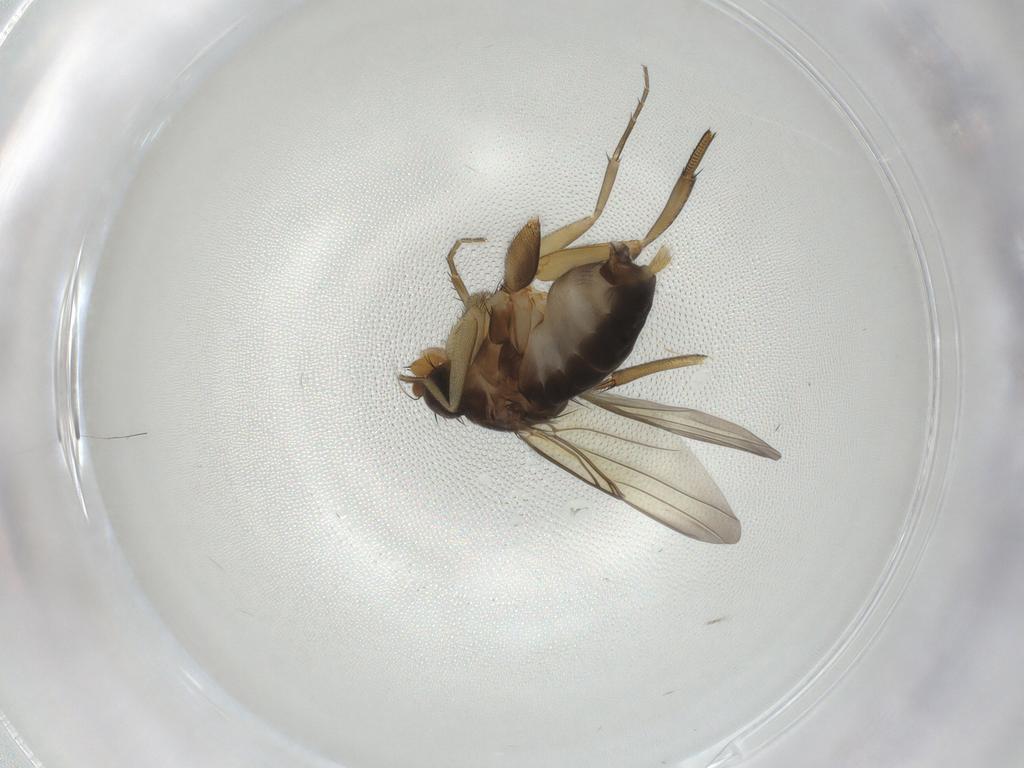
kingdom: Animalia
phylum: Arthropoda
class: Insecta
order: Diptera
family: Phoridae
